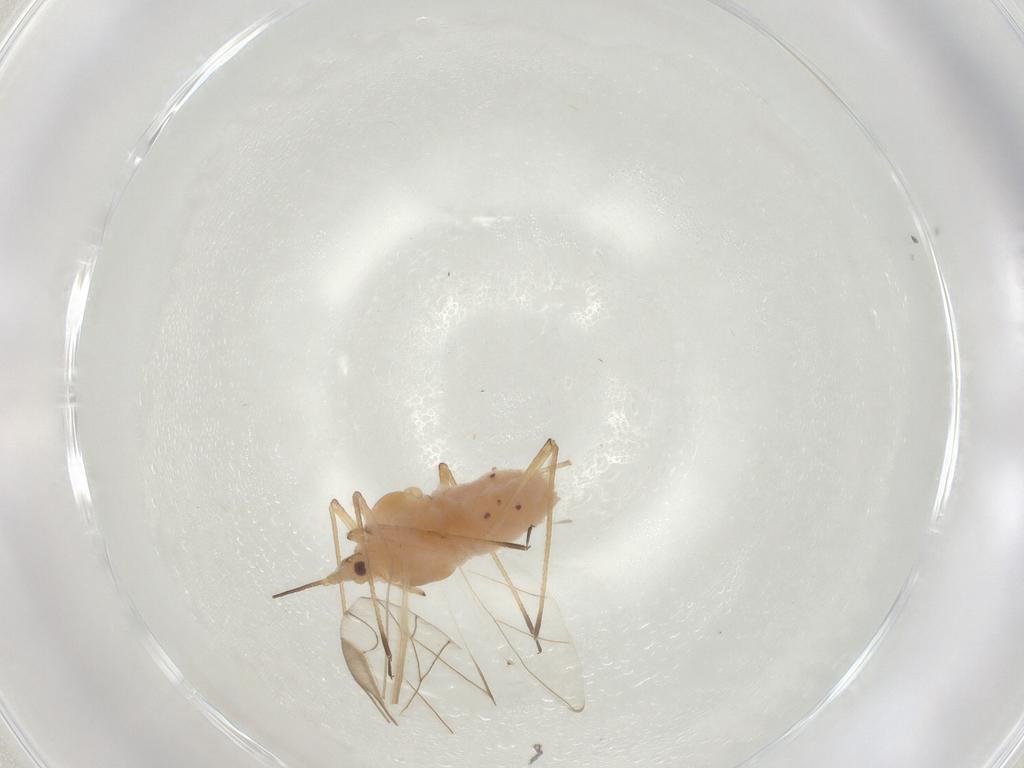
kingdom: Animalia
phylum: Arthropoda
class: Insecta
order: Hemiptera
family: Aphididae
